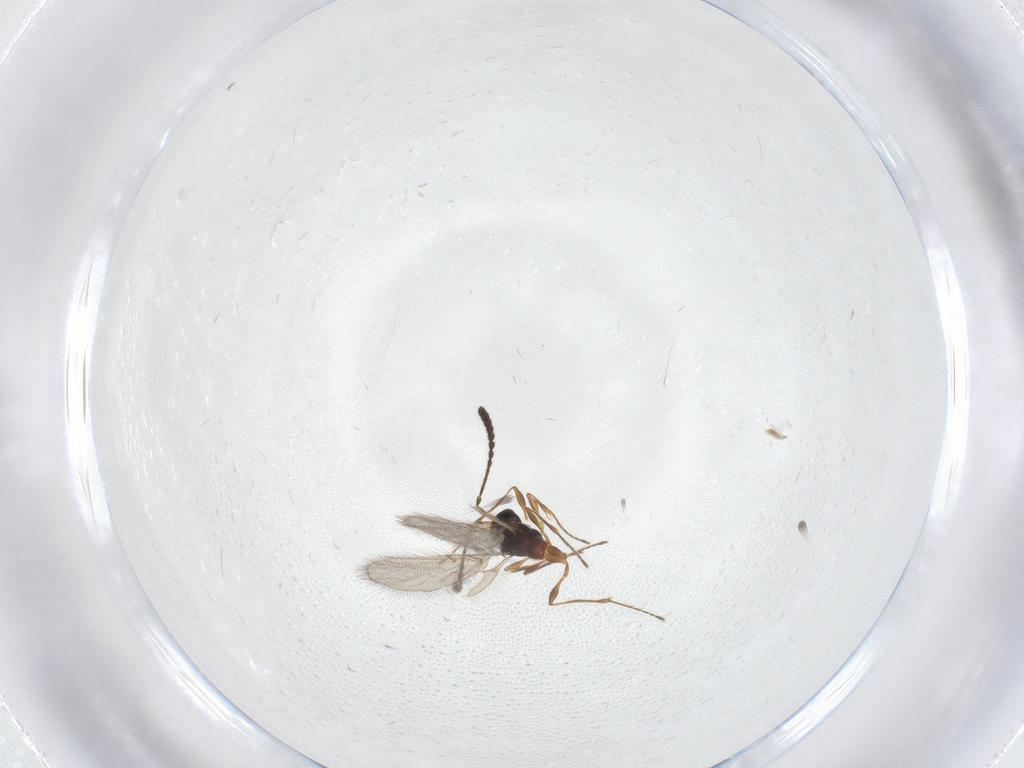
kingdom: Animalia
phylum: Arthropoda
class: Insecta
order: Hymenoptera
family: Diapriidae
